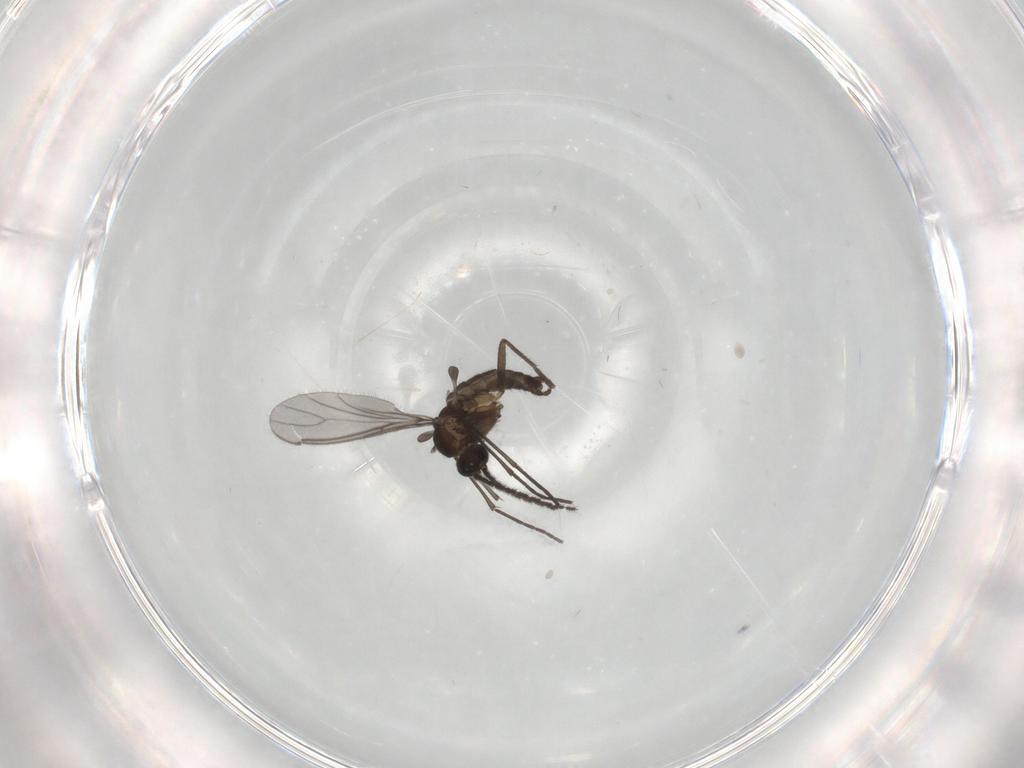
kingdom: Animalia
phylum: Arthropoda
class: Insecta
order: Diptera
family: Sciaridae
